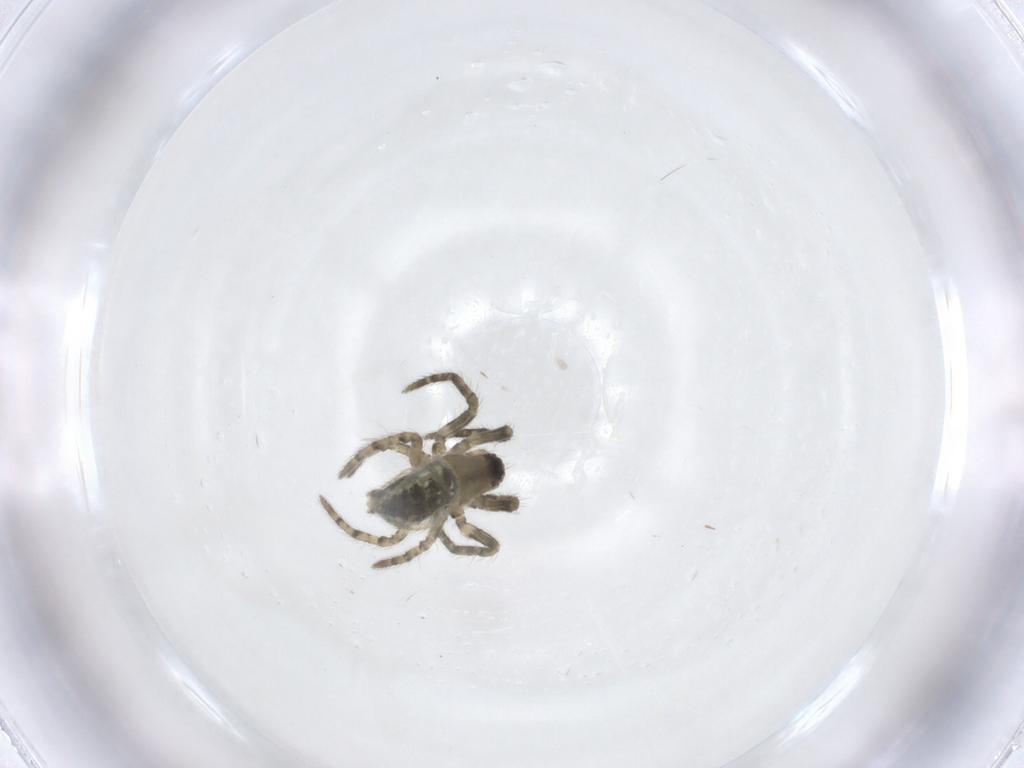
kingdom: Animalia
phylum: Arthropoda
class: Arachnida
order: Araneae
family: Araneidae
